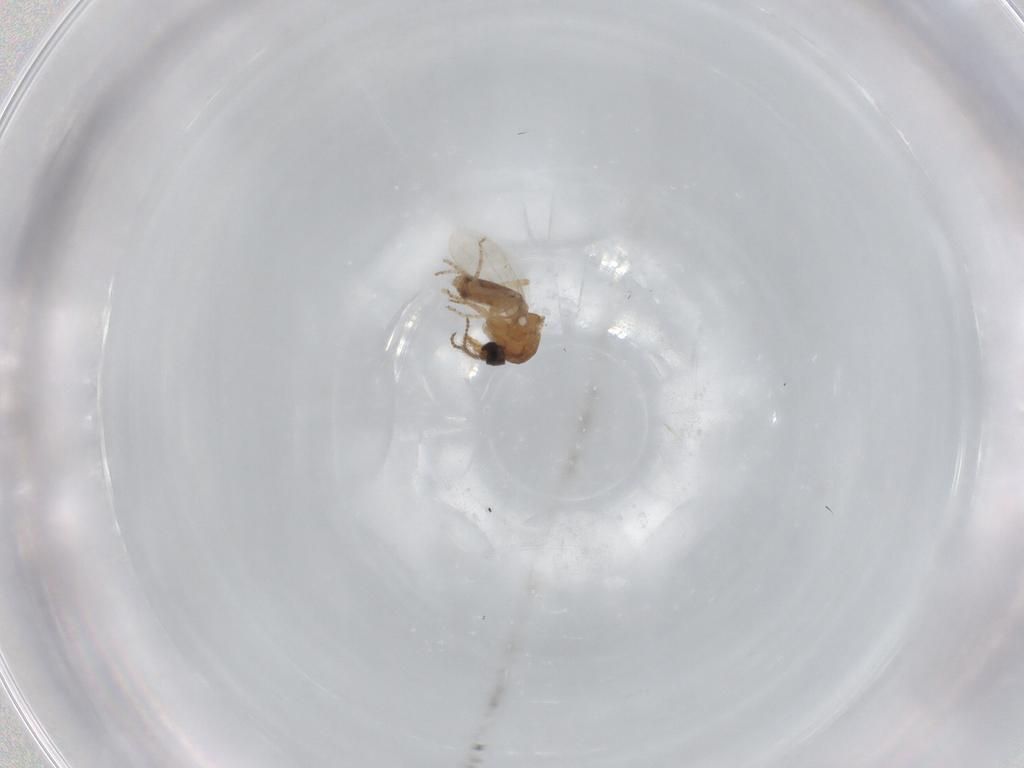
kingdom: Animalia
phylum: Arthropoda
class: Insecta
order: Diptera
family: Ceratopogonidae
